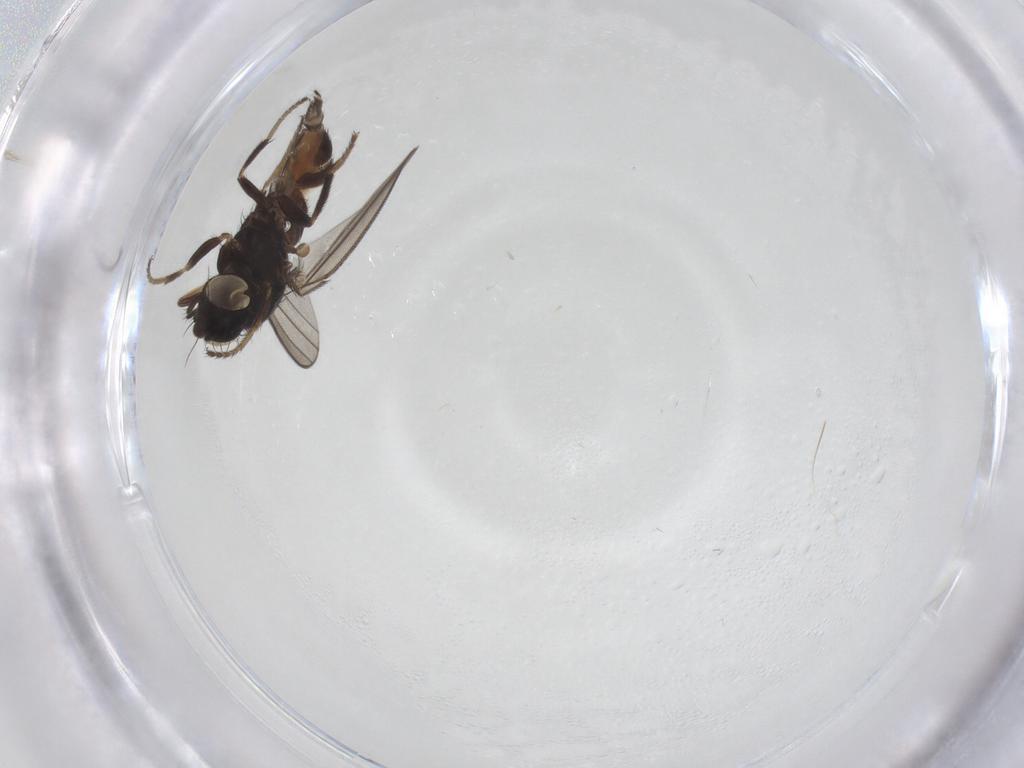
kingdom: Animalia
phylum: Arthropoda
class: Insecta
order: Diptera
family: Milichiidae
